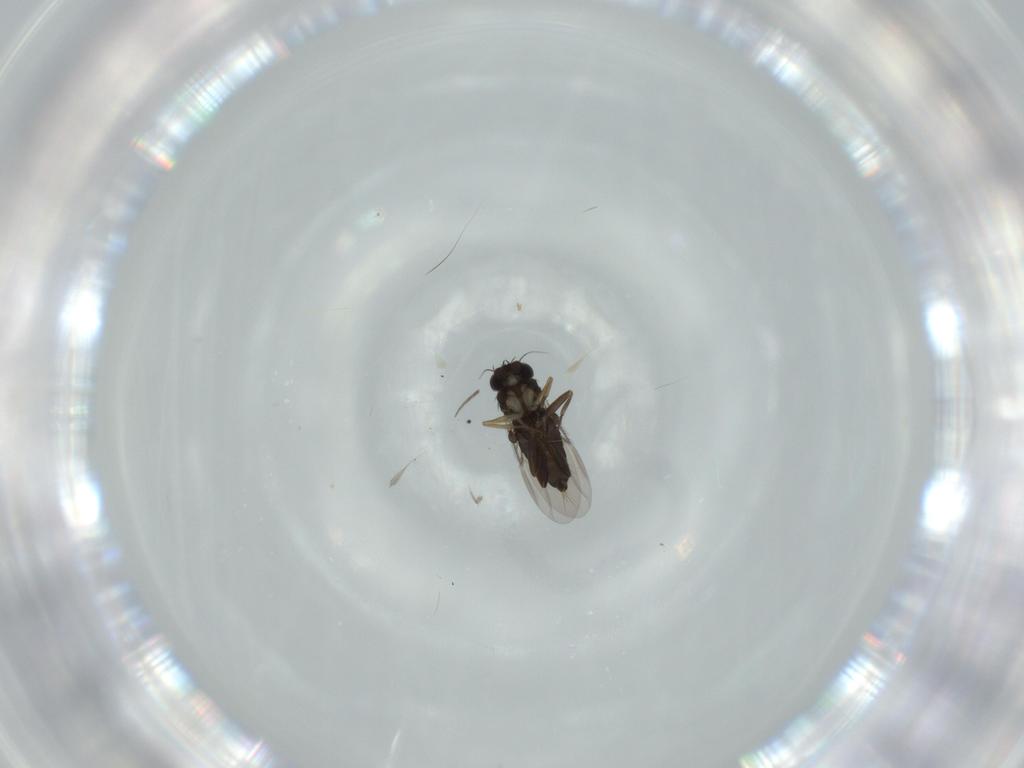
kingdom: Animalia
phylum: Arthropoda
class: Insecta
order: Diptera
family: Phoridae
